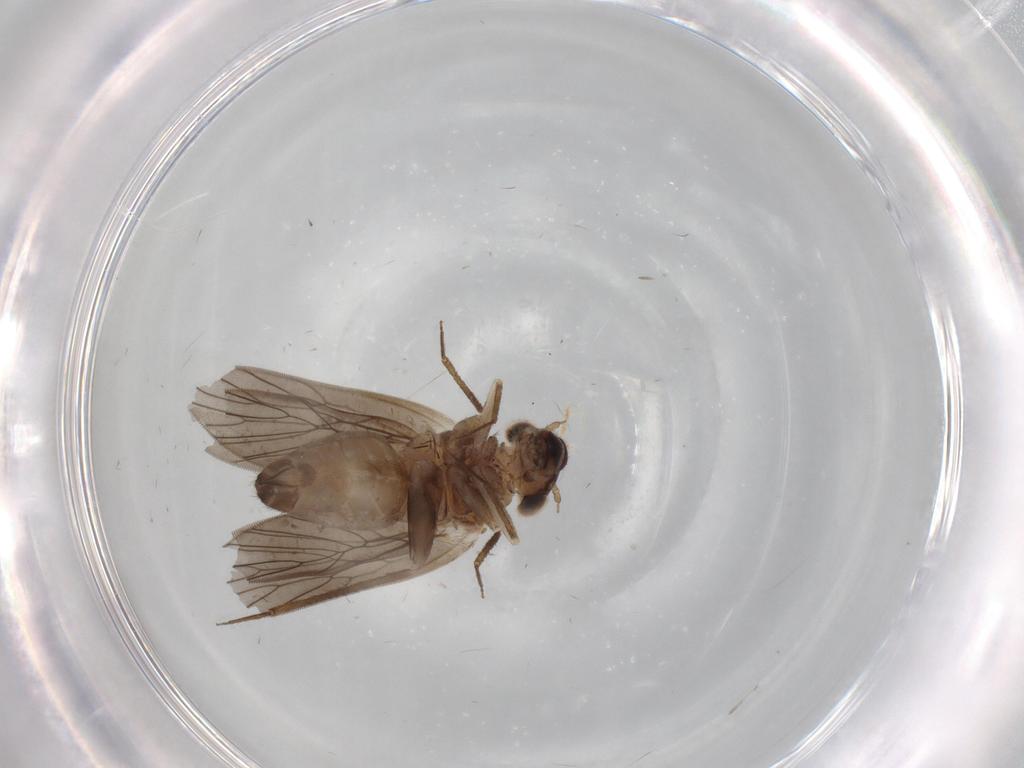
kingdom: Animalia
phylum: Arthropoda
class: Insecta
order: Psocodea
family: Lepidopsocidae
